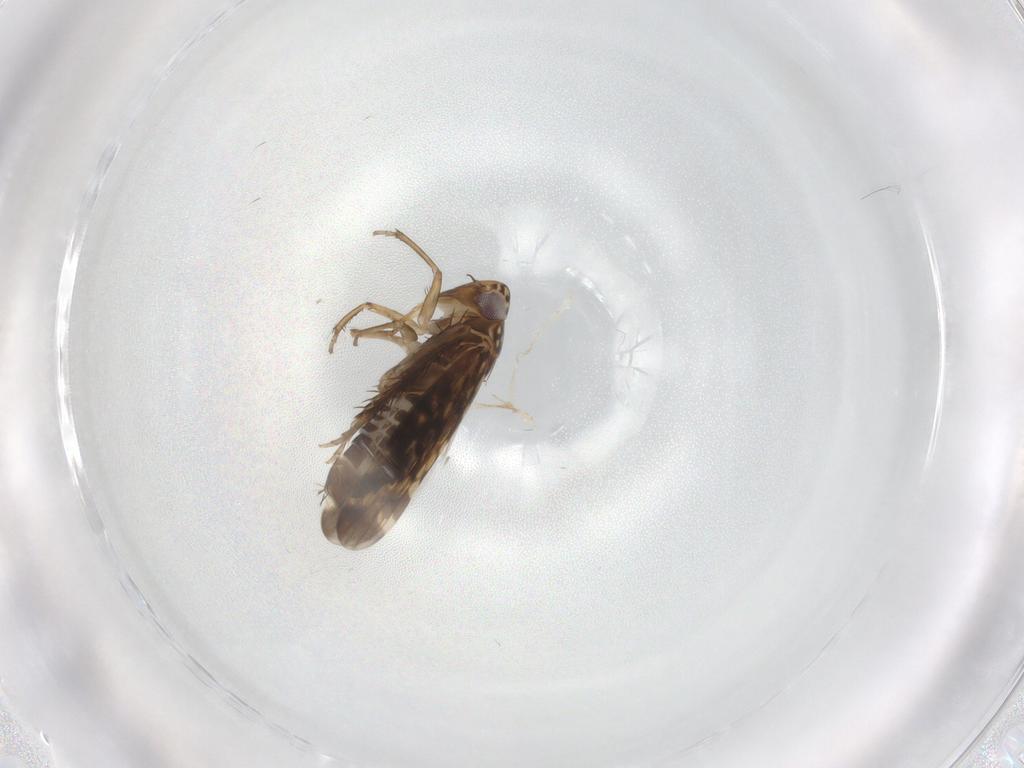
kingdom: Animalia
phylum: Arthropoda
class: Insecta
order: Hemiptera
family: Cicadellidae
